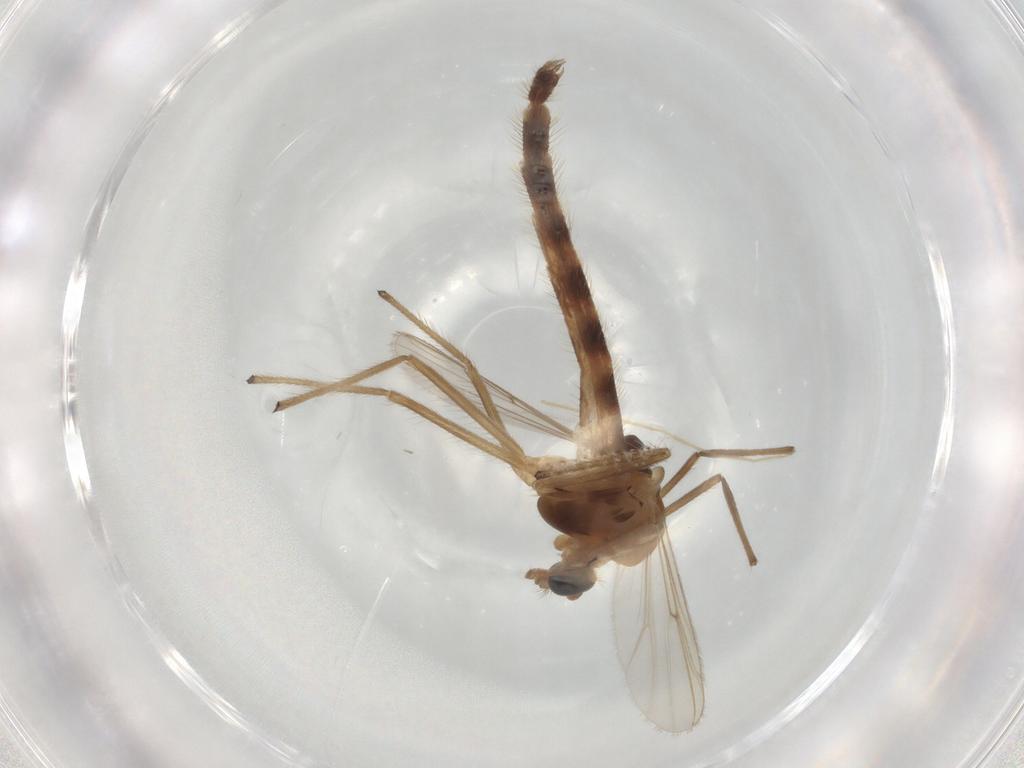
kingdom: Animalia
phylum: Arthropoda
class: Insecta
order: Diptera
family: Chironomidae
